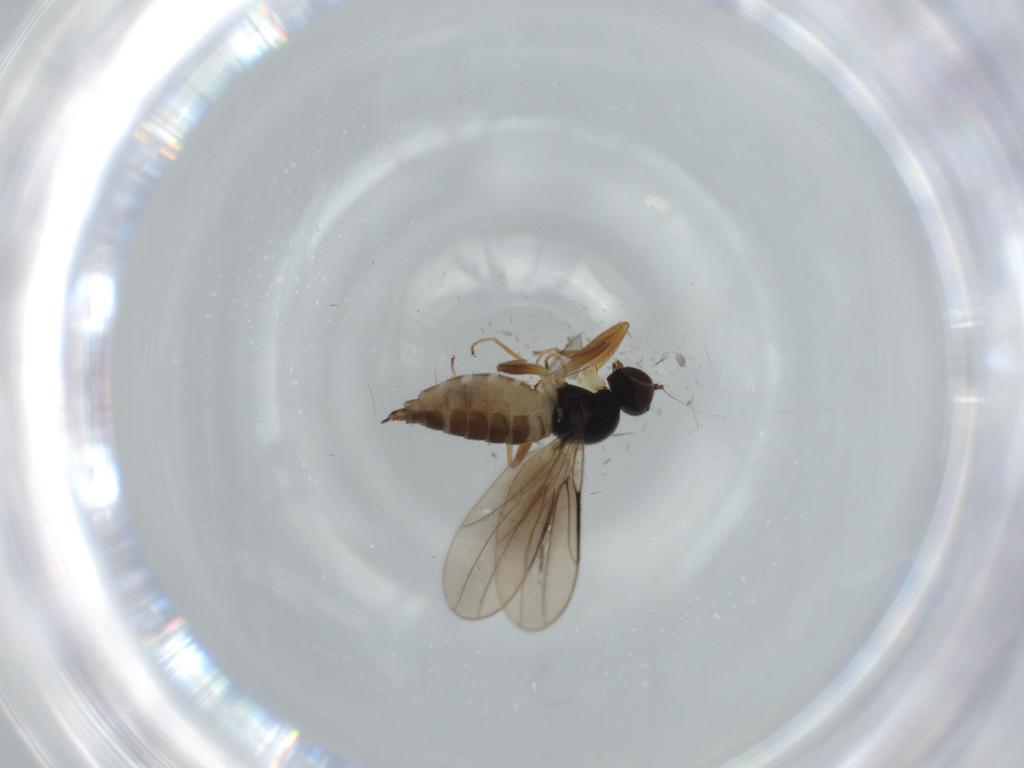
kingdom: Animalia
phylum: Arthropoda
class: Insecta
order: Diptera
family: Hybotidae
